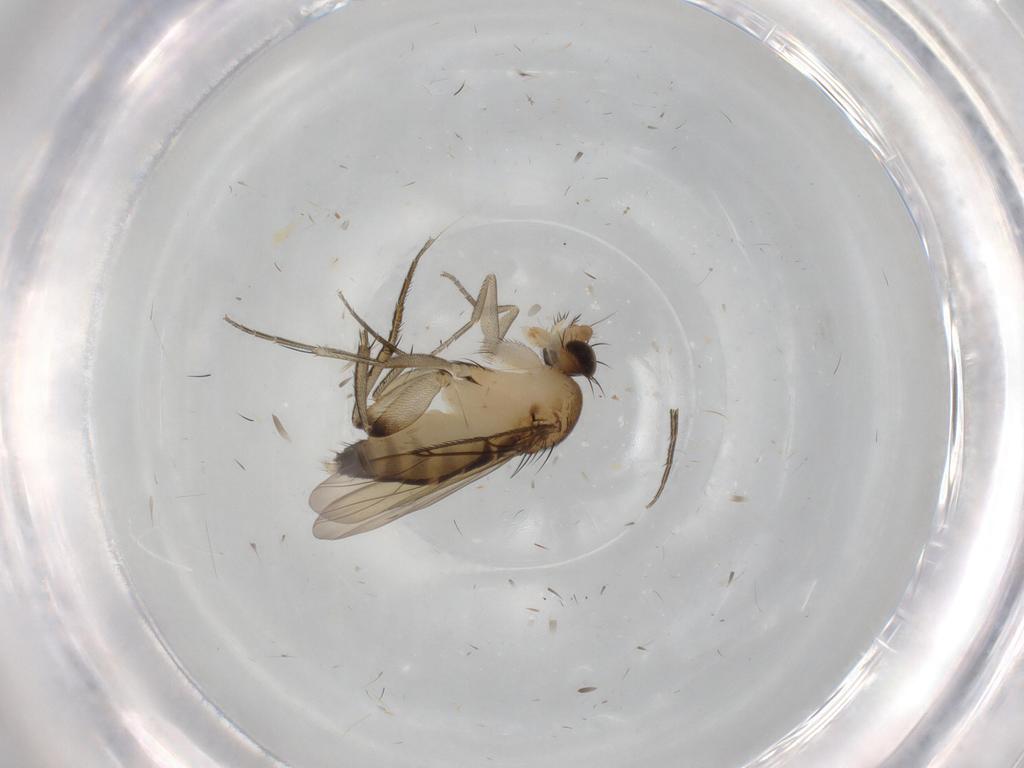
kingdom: Animalia
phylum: Arthropoda
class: Insecta
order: Diptera
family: Phoridae
